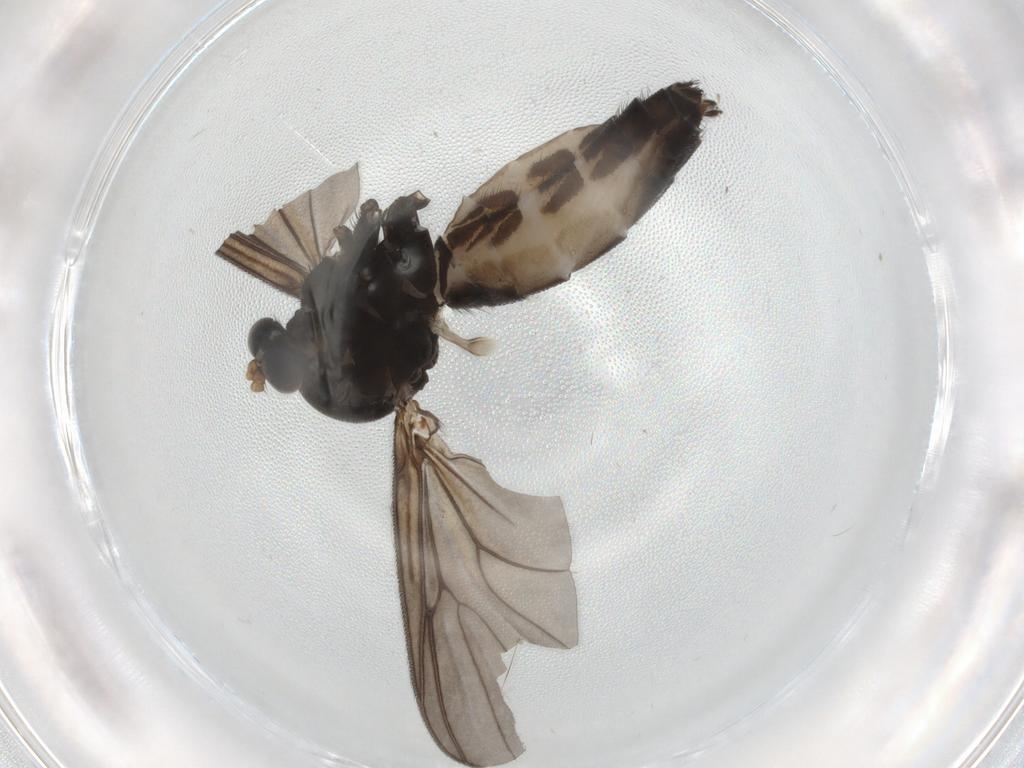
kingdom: Animalia
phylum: Arthropoda
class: Insecta
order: Diptera
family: Mycetophilidae
